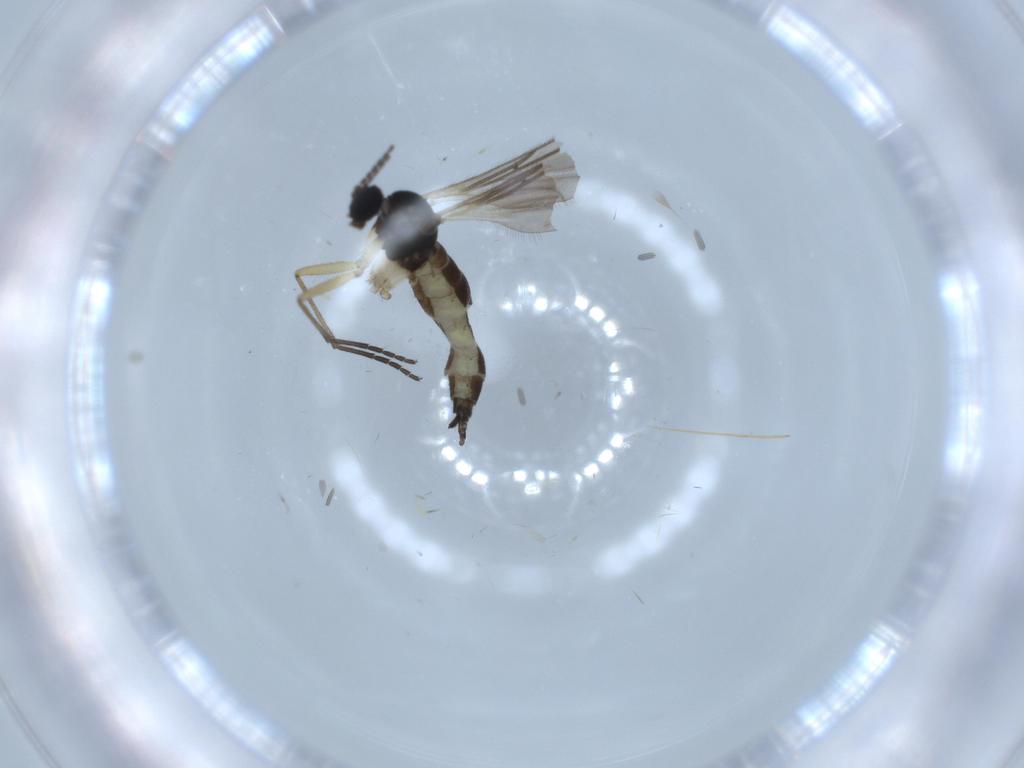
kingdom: Animalia
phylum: Arthropoda
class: Insecta
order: Diptera
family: Sciaridae
